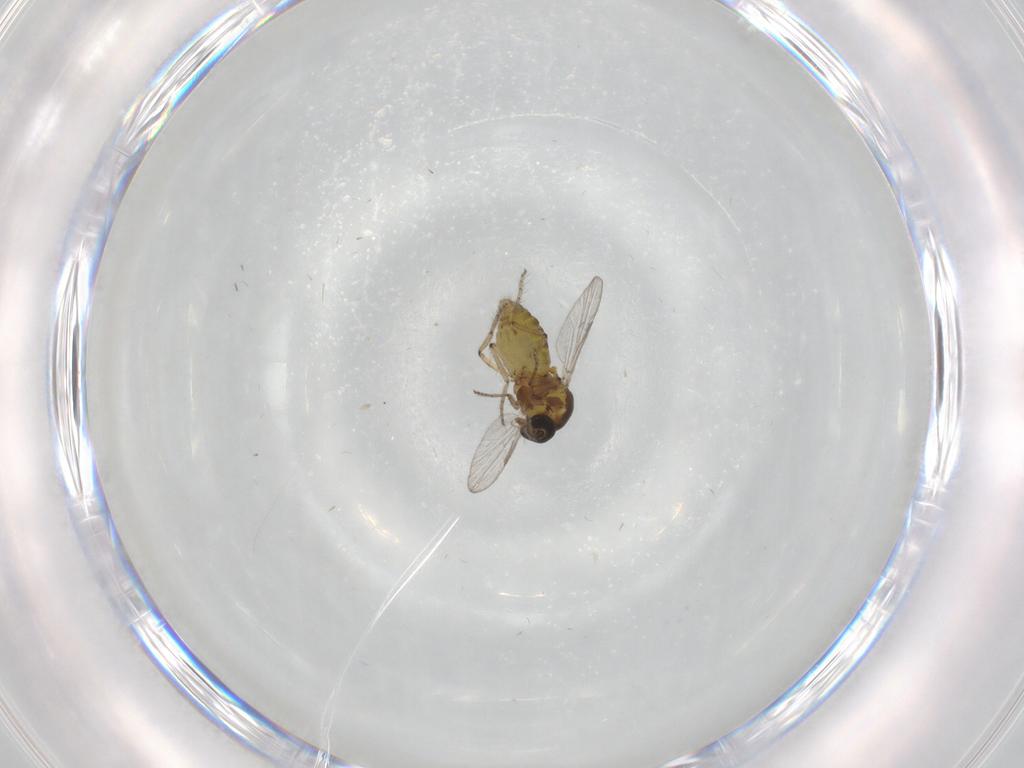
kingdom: Animalia
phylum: Arthropoda
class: Insecta
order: Diptera
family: Ceratopogonidae
